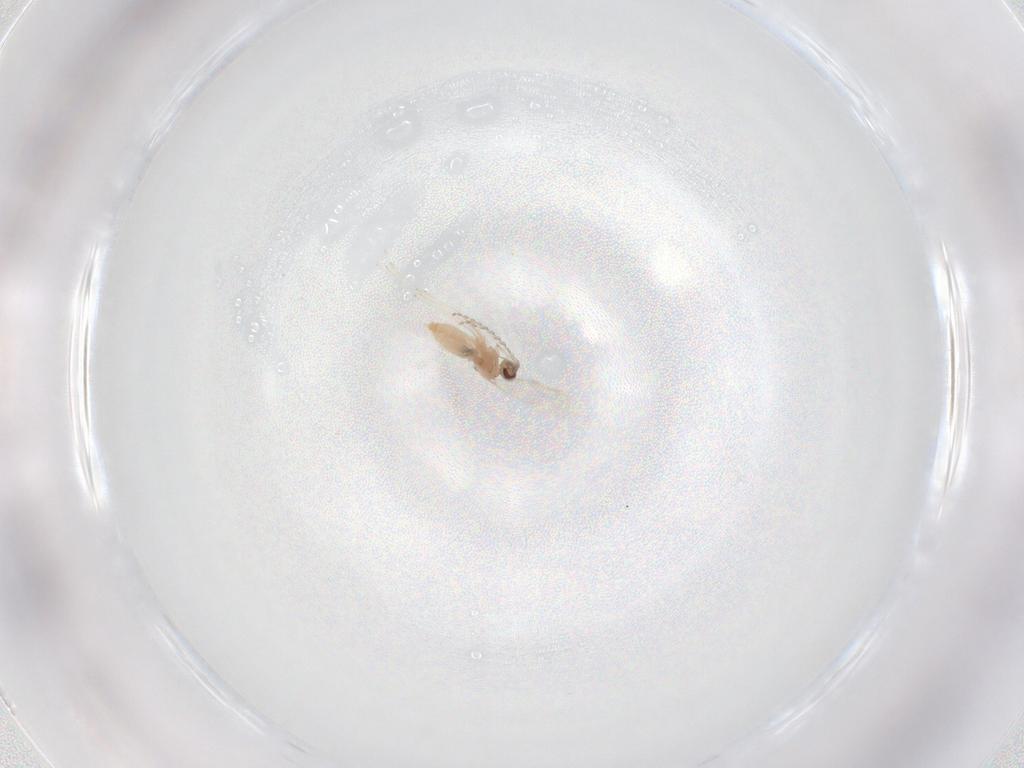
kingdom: Animalia
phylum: Arthropoda
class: Insecta
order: Diptera
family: Cecidomyiidae
